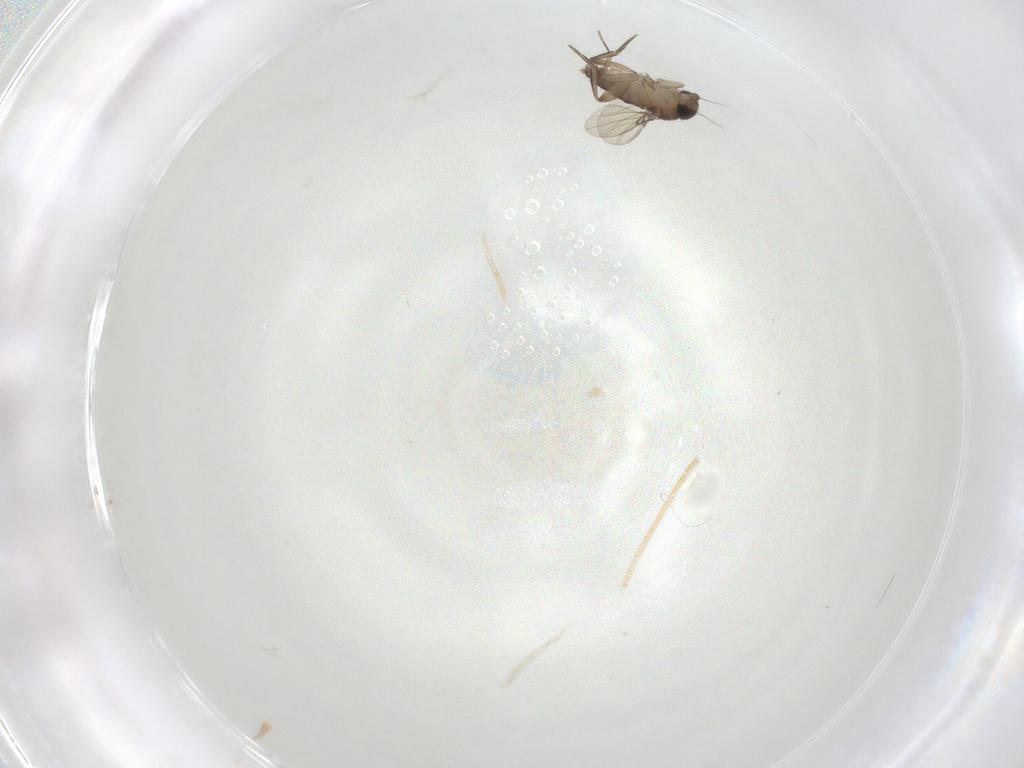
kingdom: Animalia
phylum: Arthropoda
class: Insecta
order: Diptera
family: Phoridae
